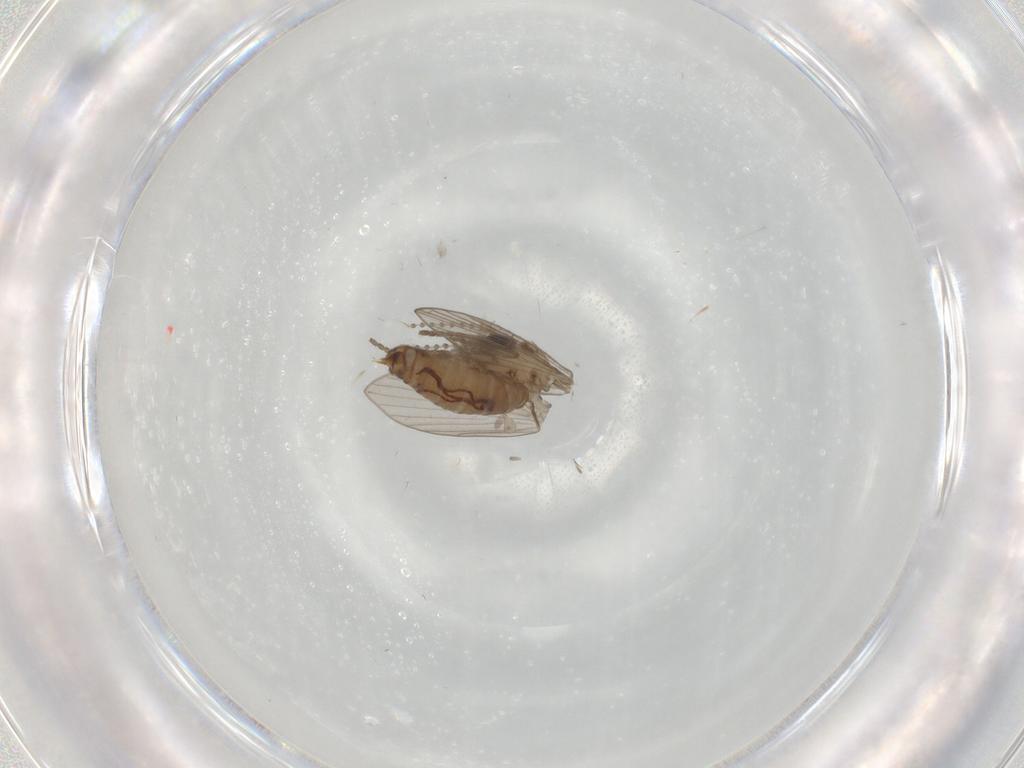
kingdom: Animalia
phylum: Arthropoda
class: Insecta
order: Diptera
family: Psychodidae
